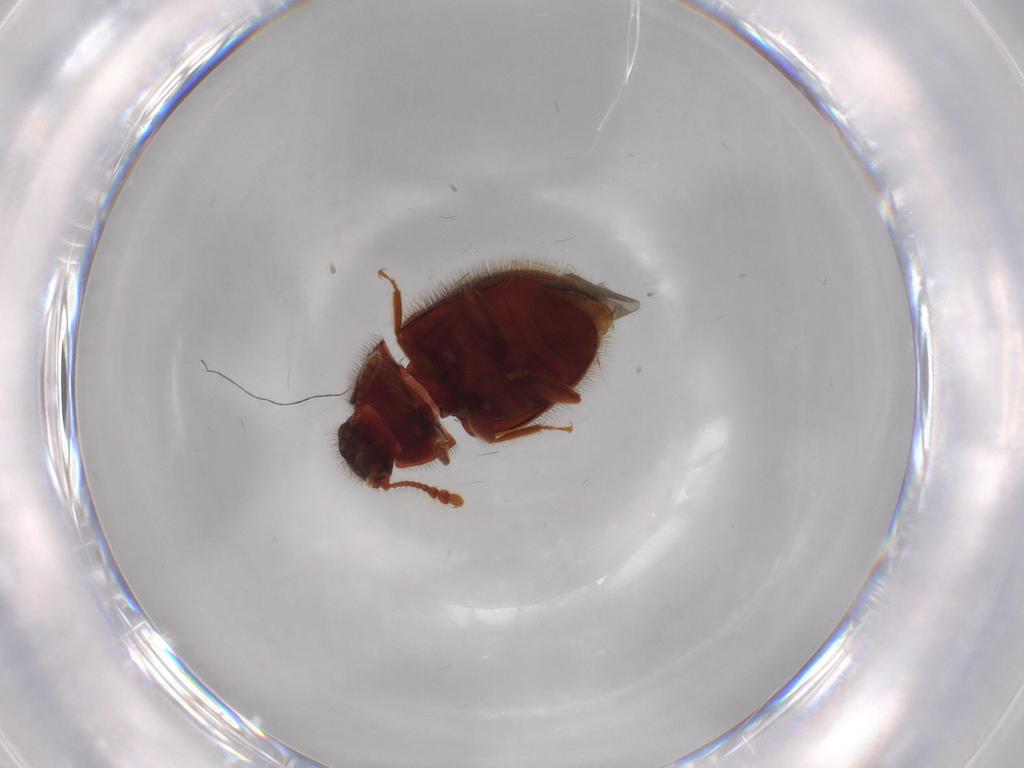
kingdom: Animalia
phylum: Arthropoda
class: Insecta
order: Coleoptera
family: Biphyllidae
